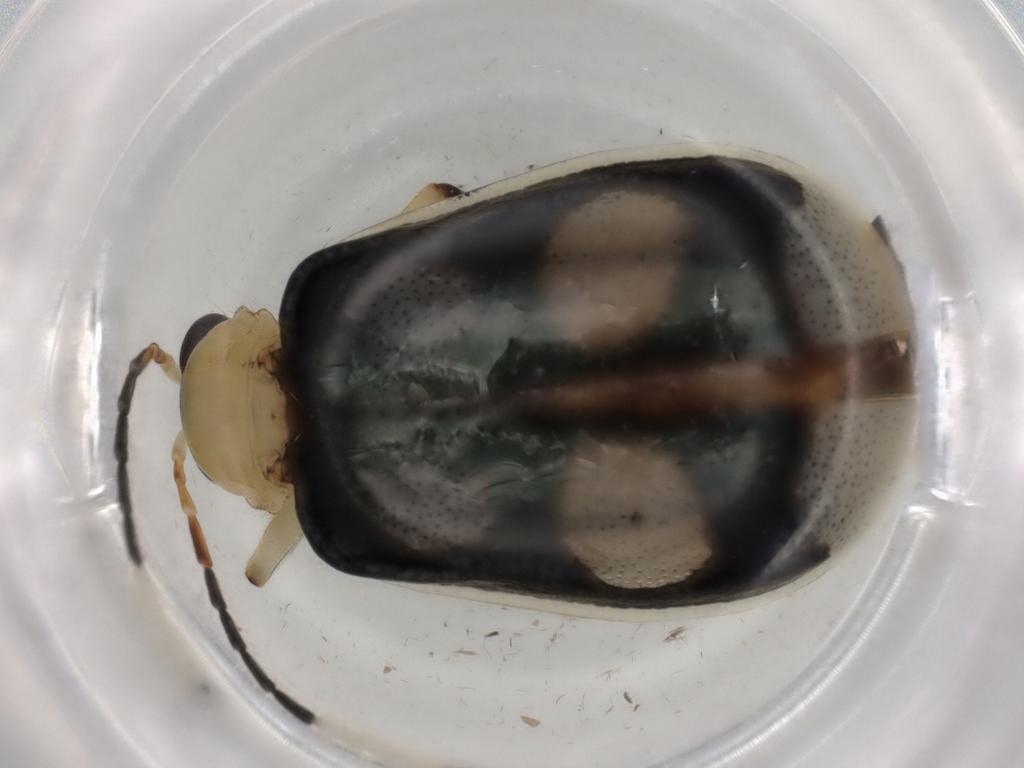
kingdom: Animalia
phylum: Arthropoda
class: Insecta
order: Coleoptera
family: Chrysomelidae
